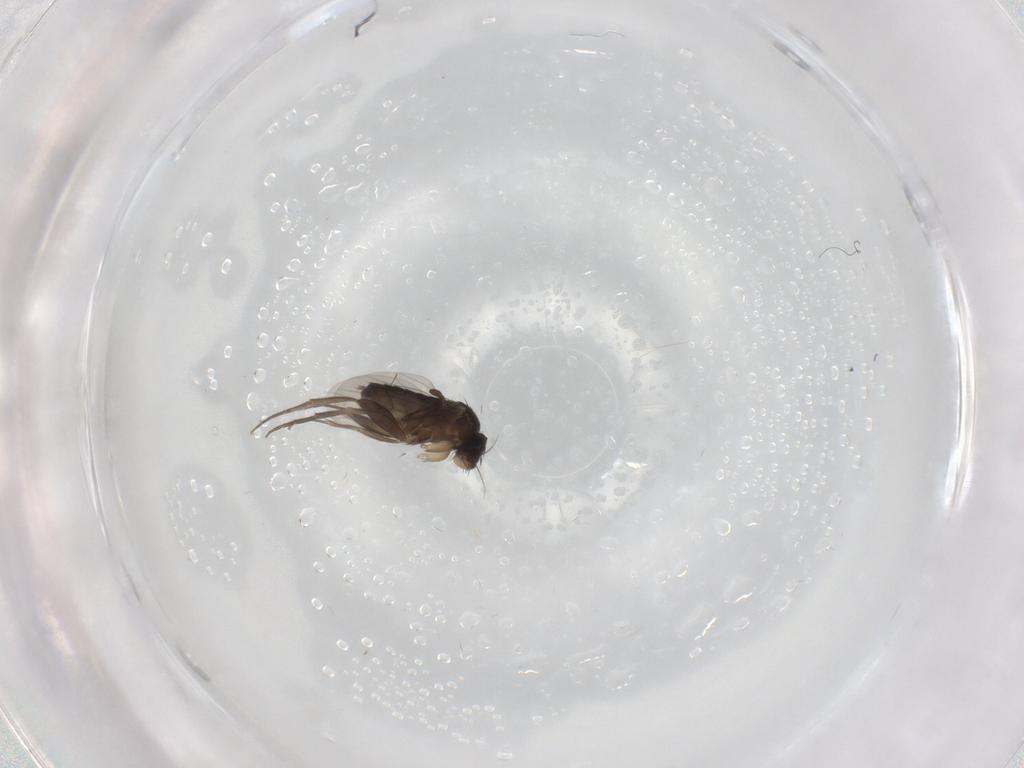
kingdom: Animalia
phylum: Arthropoda
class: Insecta
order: Diptera
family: Phoridae
